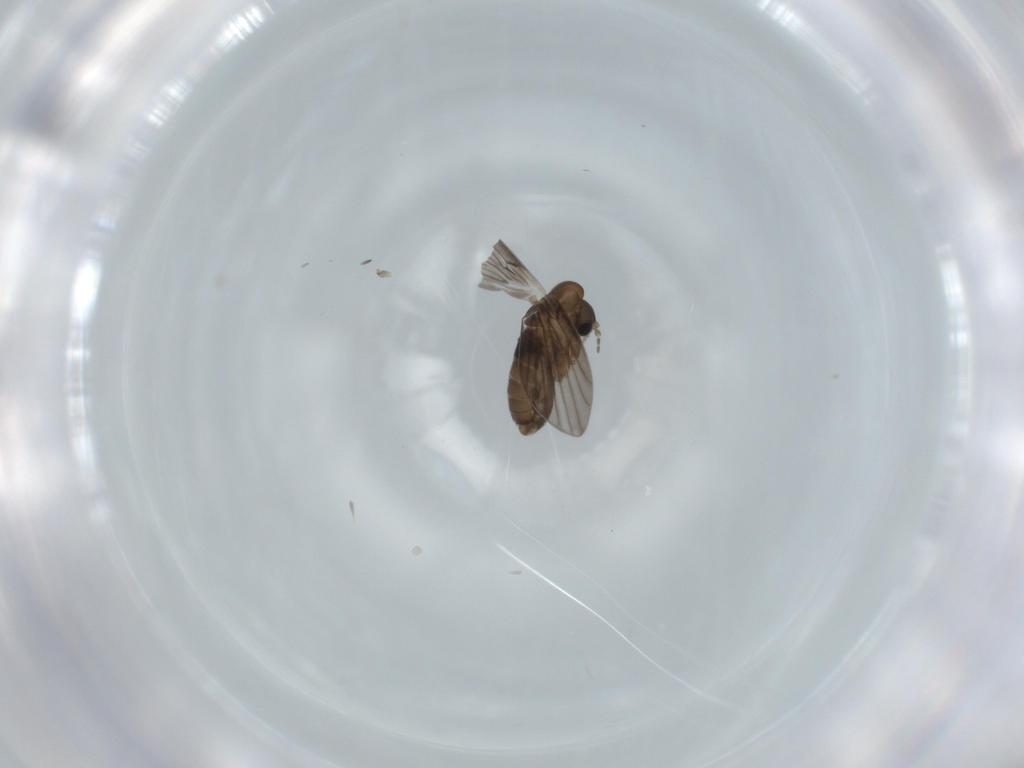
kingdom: Animalia
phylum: Arthropoda
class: Insecta
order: Diptera
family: Psychodidae
